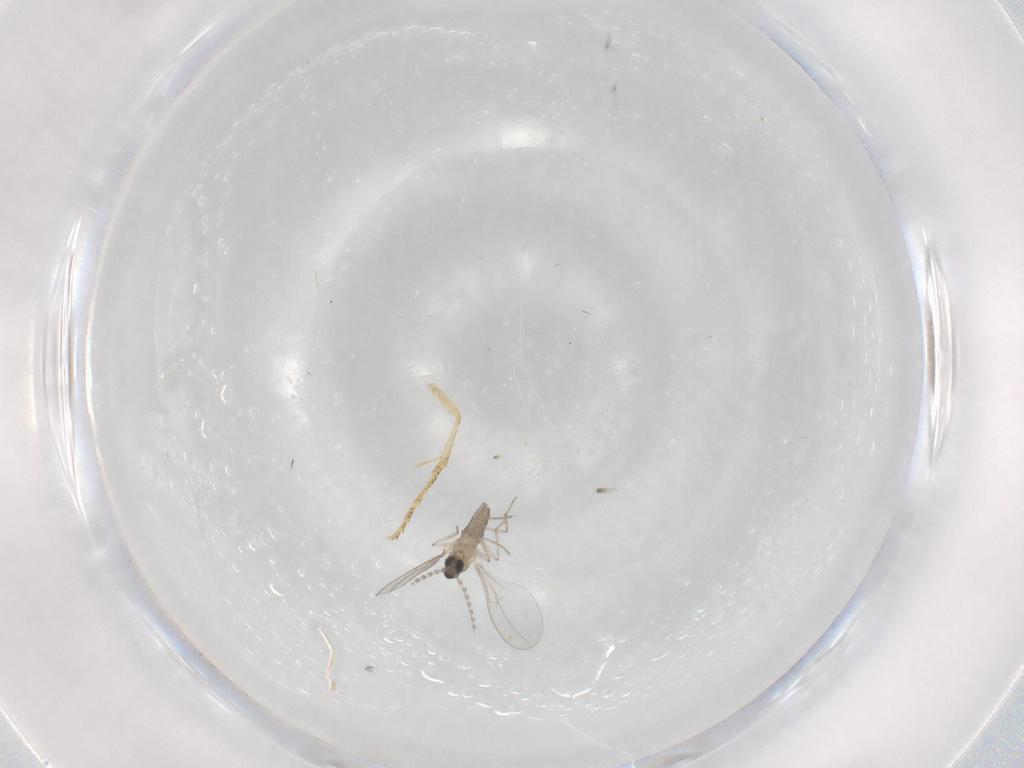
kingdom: Animalia
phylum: Arthropoda
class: Insecta
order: Diptera
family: Cecidomyiidae
